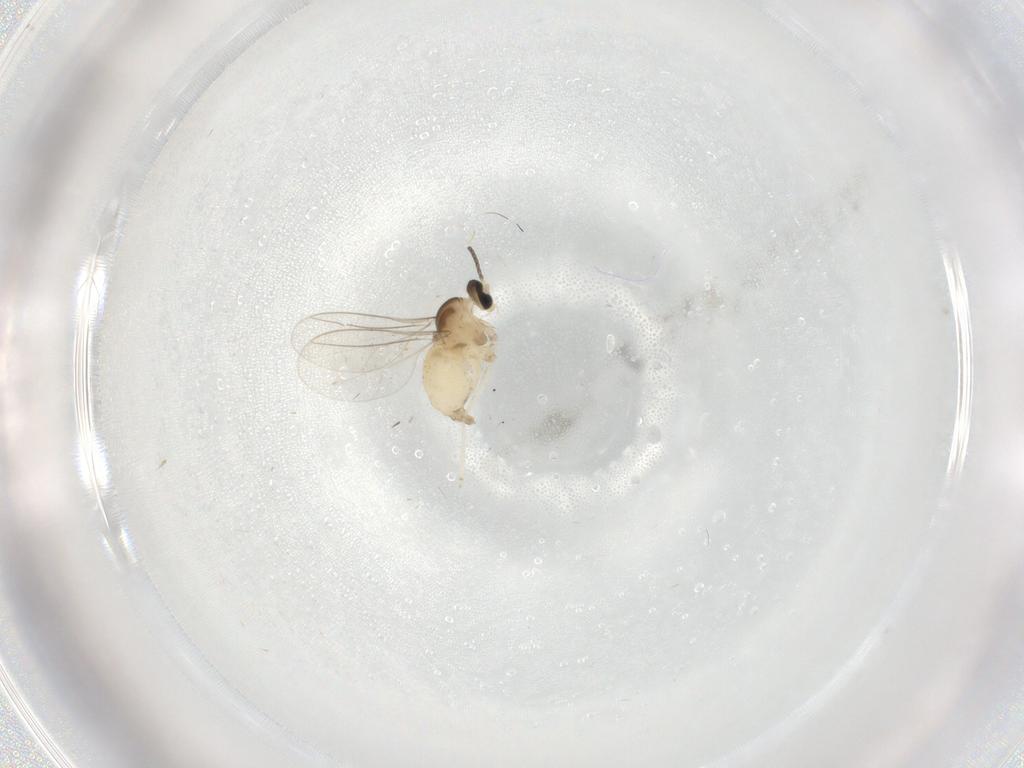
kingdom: Animalia
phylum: Arthropoda
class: Insecta
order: Diptera
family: Cecidomyiidae
